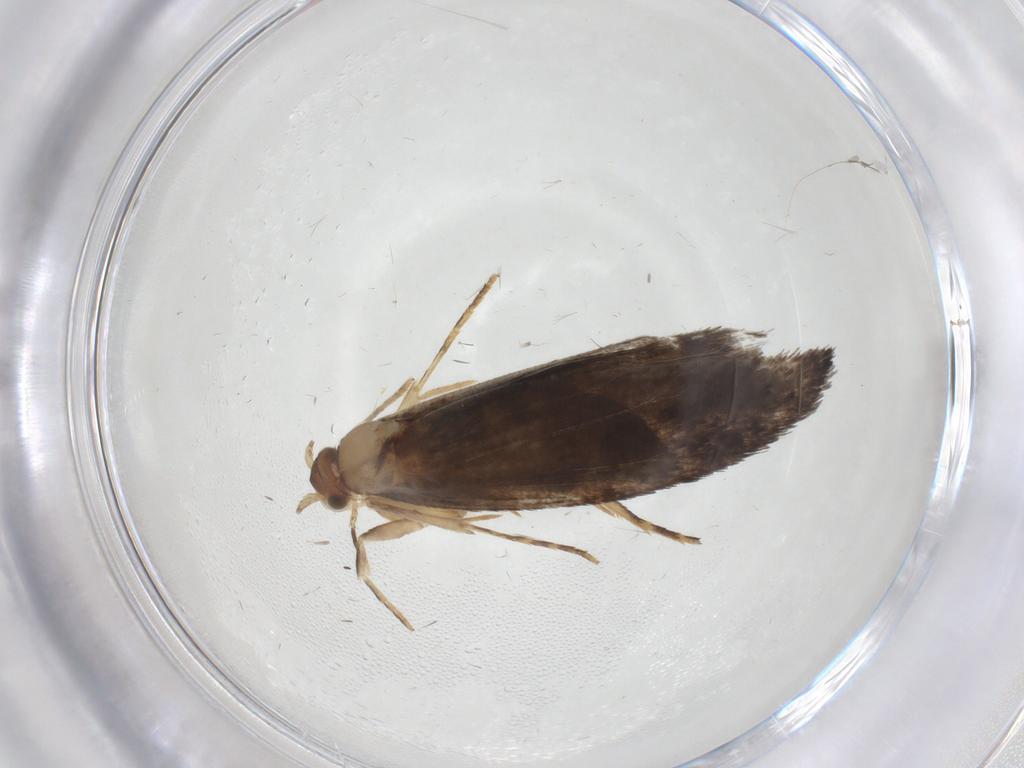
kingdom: Animalia
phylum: Arthropoda
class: Insecta
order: Lepidoptera
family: Tineidae
